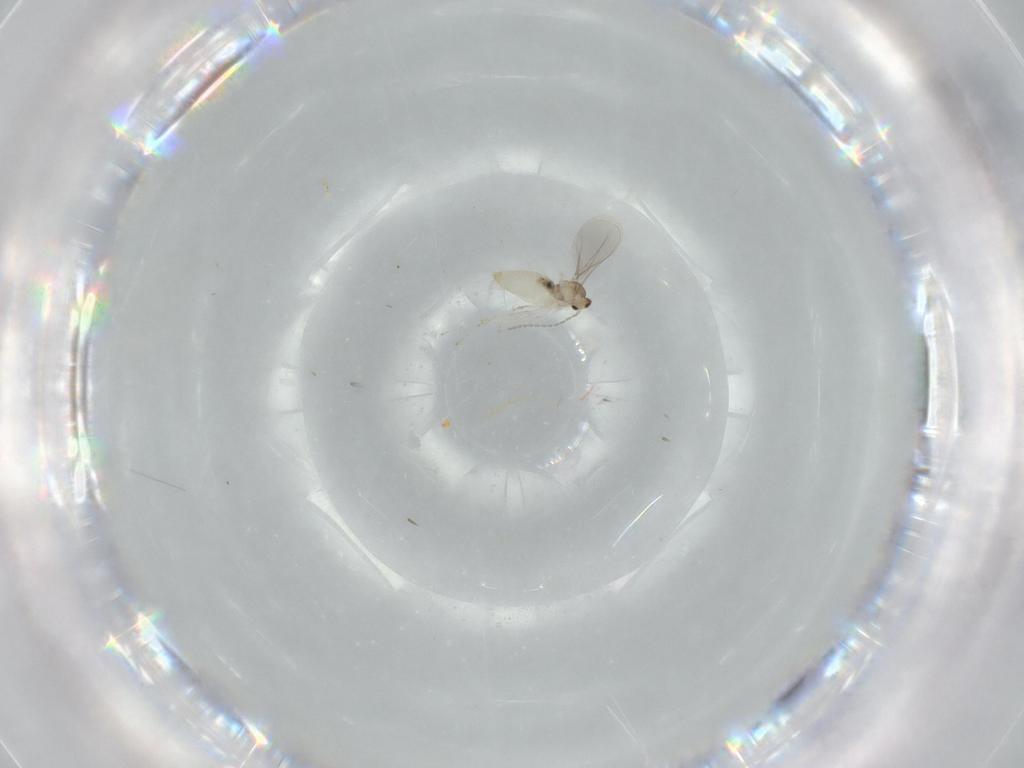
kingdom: Animalia
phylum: Arthropoda
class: Insecta
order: Diptera
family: Cecidomyiidae
